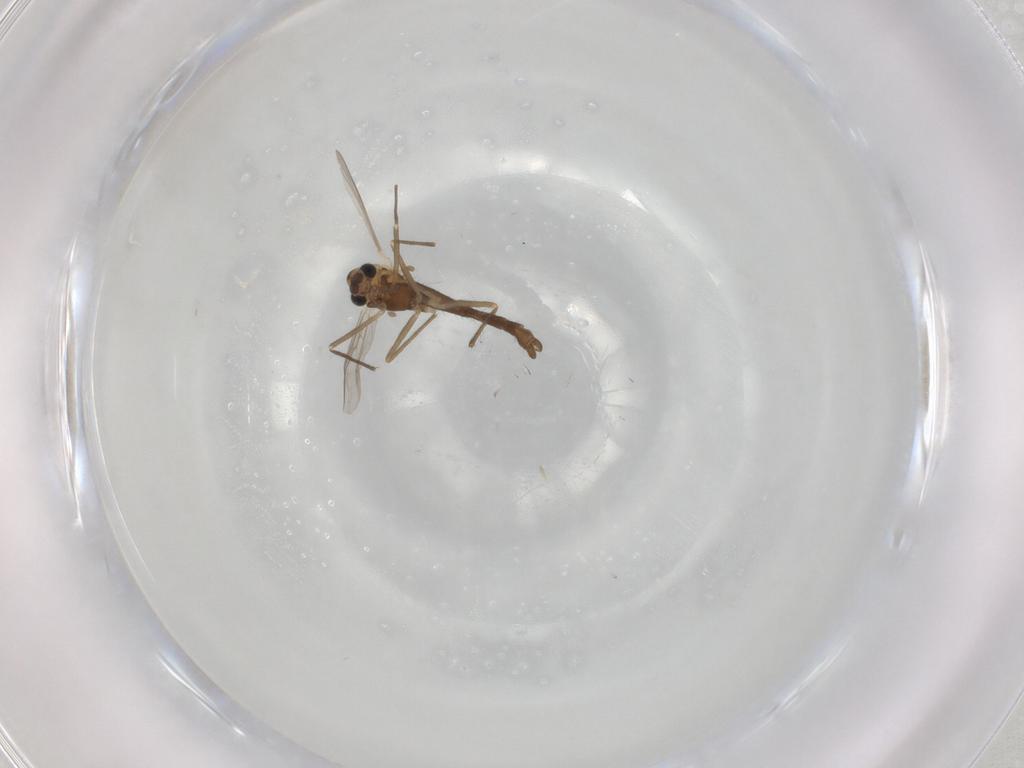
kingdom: Animalia
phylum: Arthropoda
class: Insecta
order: Diptera
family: Chironomidae
